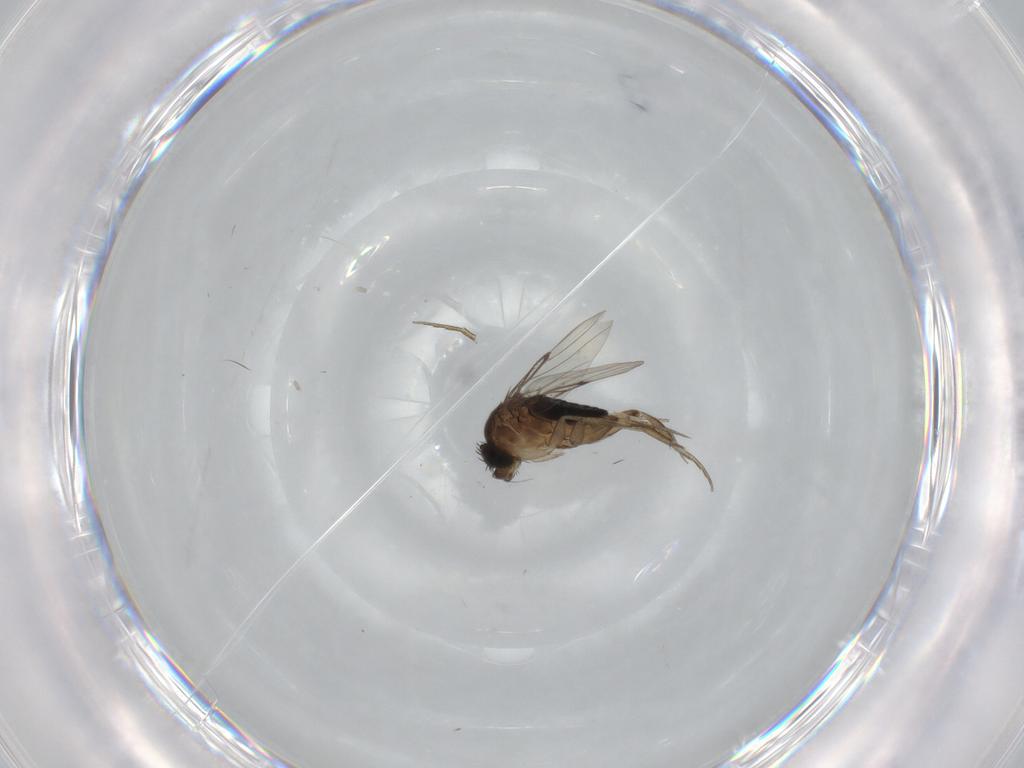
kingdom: Animalia
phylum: Arthropoda
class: Insecta
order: Diptera
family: Phoridae
